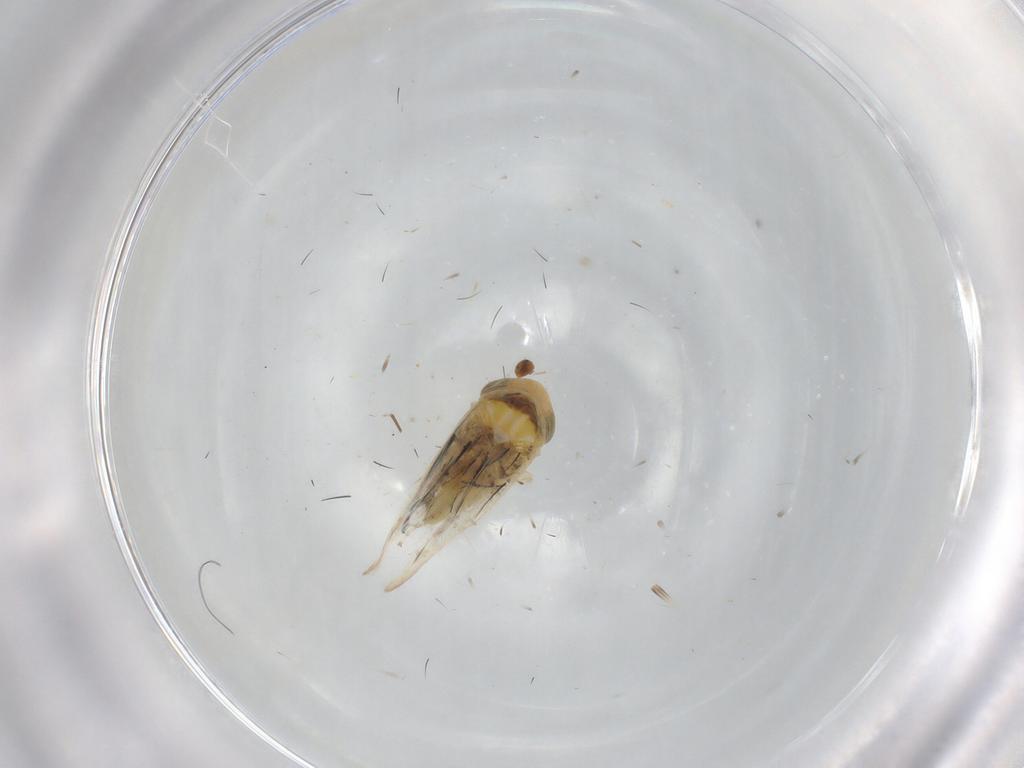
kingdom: Animalia
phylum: Arthropoda
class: Insecta
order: Hemiptera
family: Cicadellidae
